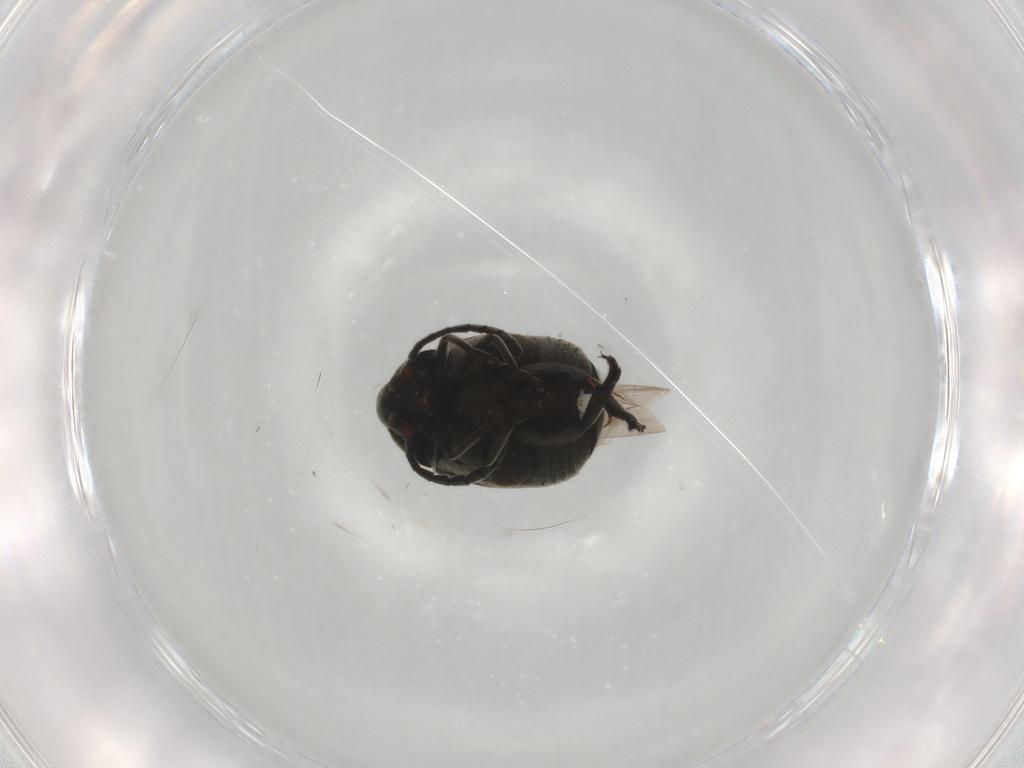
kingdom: Animalia
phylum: Arthropoda
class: Insecta
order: Coleoptera
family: Chrysomelidae
